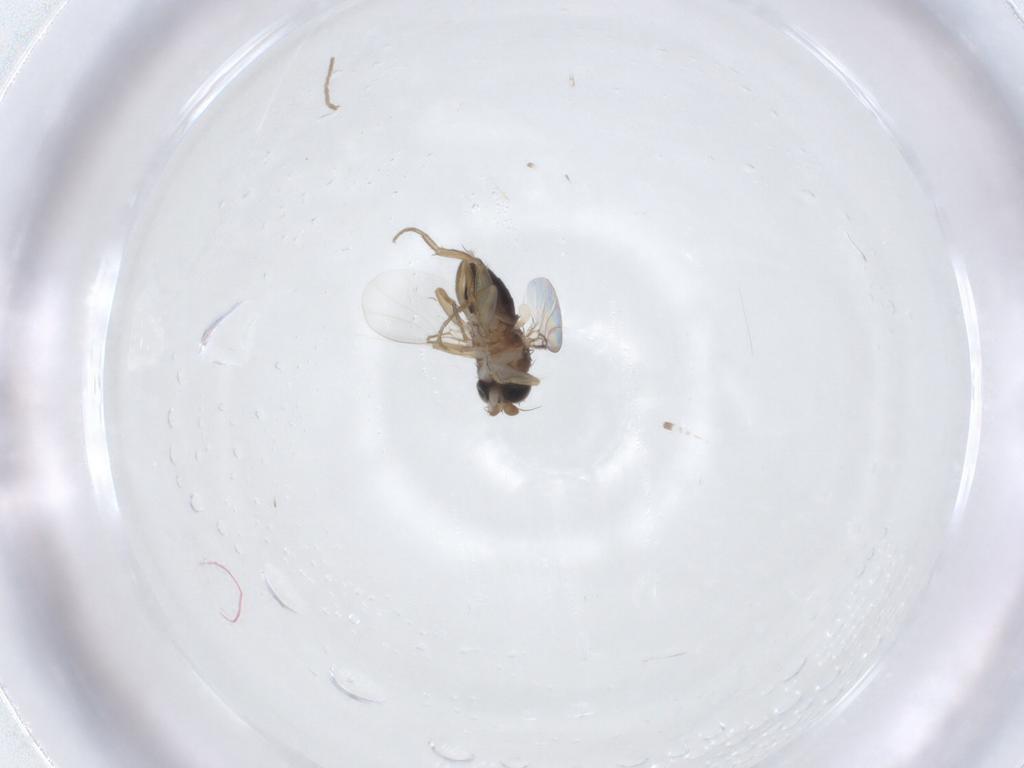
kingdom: Animalia
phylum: Arthropoda
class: Insecta
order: Diptera
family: Phoridae
